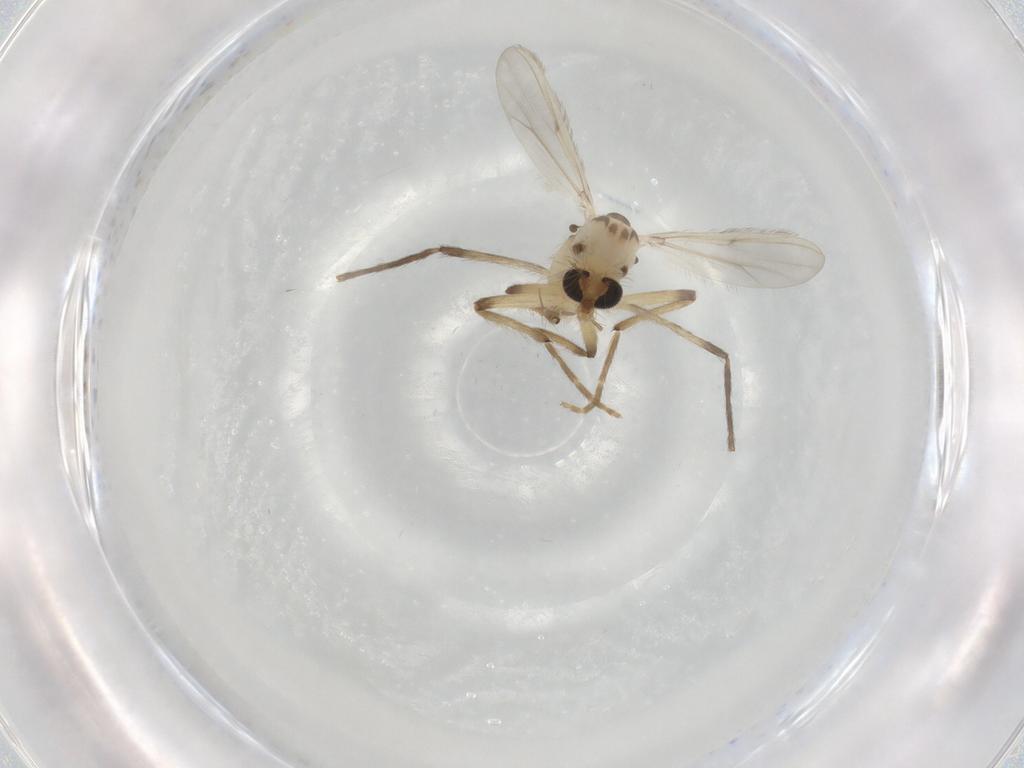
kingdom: Animalia
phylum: Arthropoda
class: Insecta
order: Diptera
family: Chironomidae
